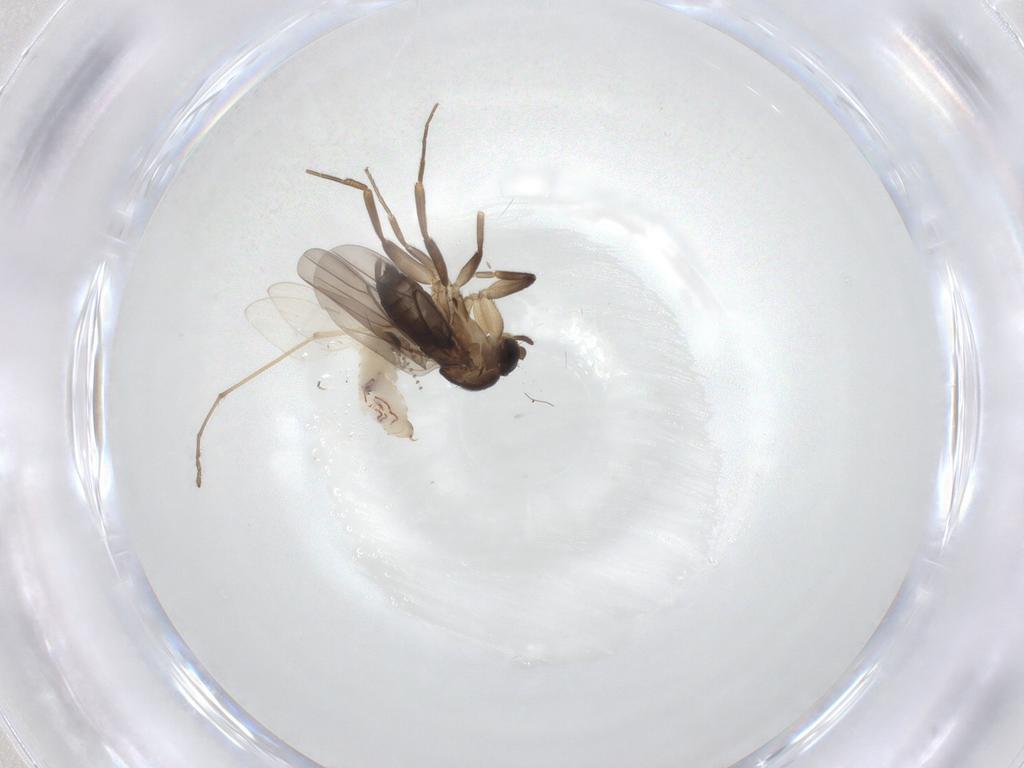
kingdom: Animalia
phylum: Arthropoda
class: Insecta
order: Diptera
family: Psychodidae
